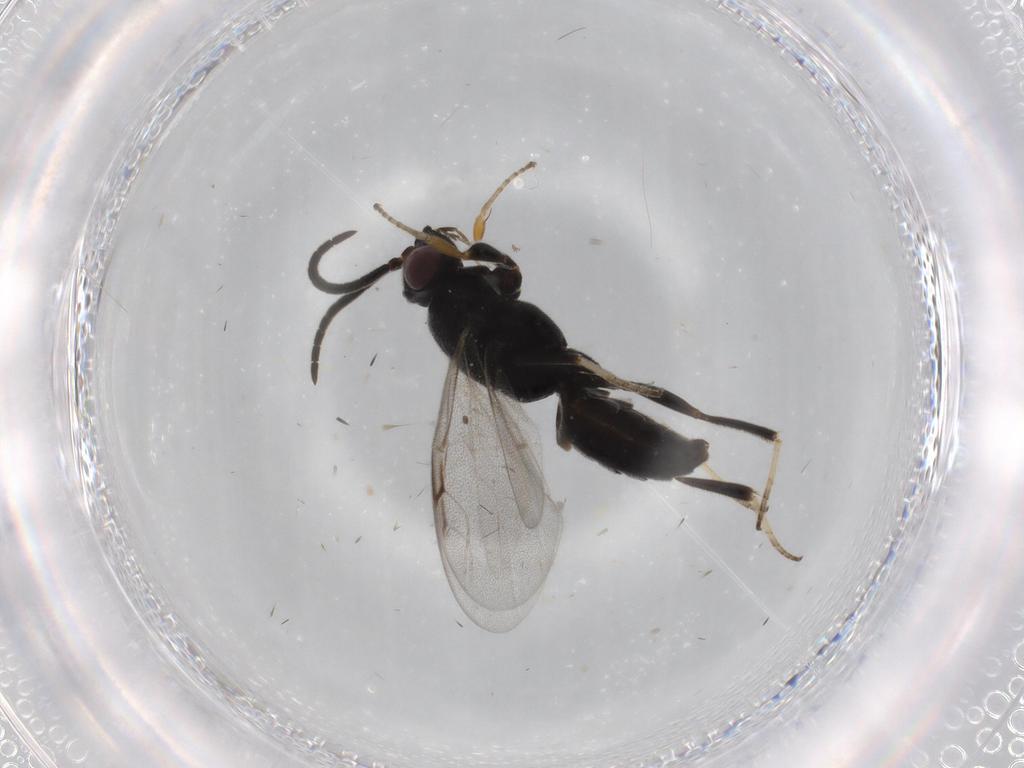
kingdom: Animalia
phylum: Arthropoda
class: Insecta
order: Hymenoptera
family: Dryinidae
